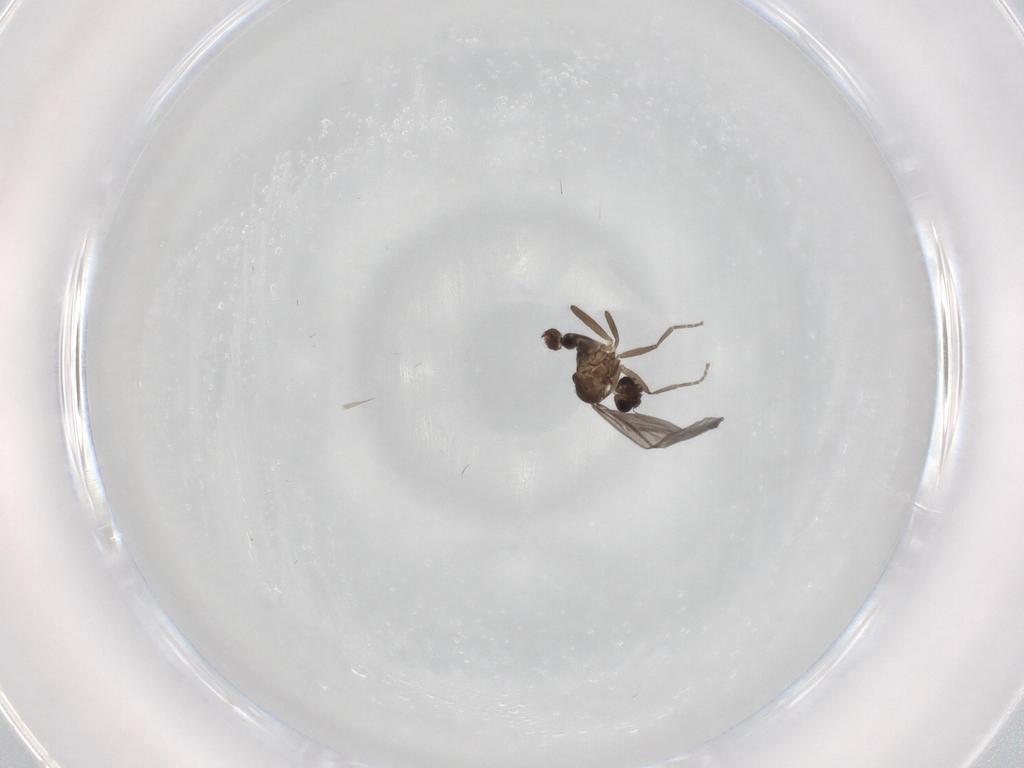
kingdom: Animalia
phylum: Arthropoda
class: Insecta
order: Diptera
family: Phoridae
